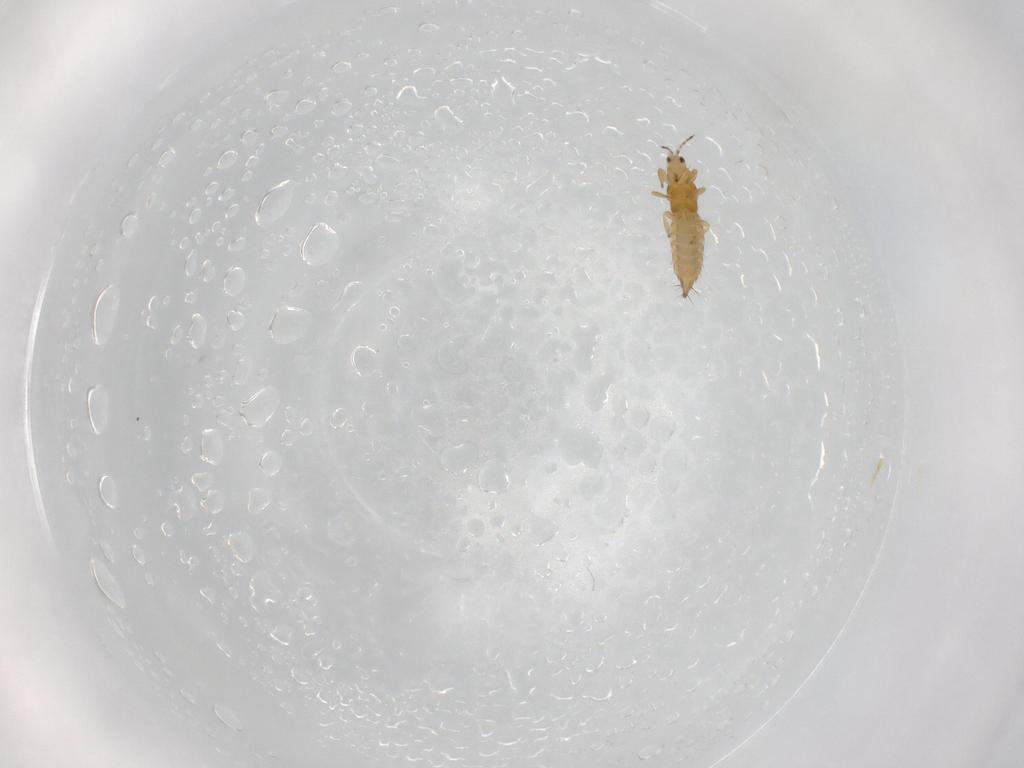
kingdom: Animalia
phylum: Arthropoda
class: Insecta
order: Thysanoptera
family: Thripidae
